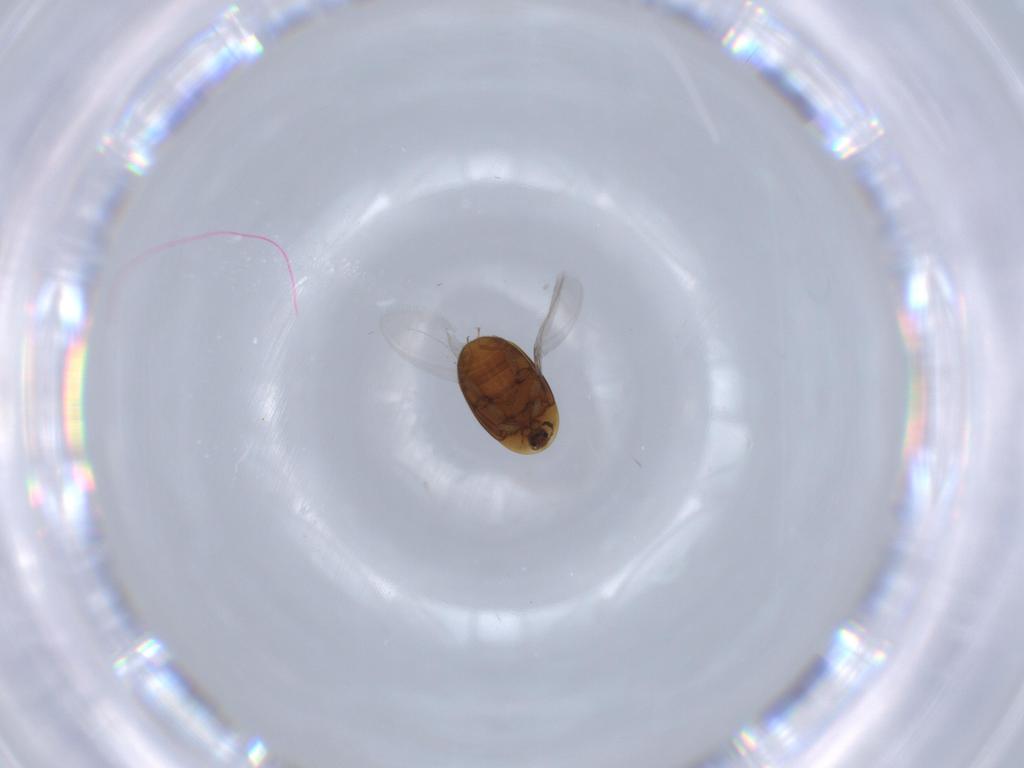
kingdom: Animalia
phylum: Arthropoda
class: Insecta
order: Coleoptera
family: Corylophidae
